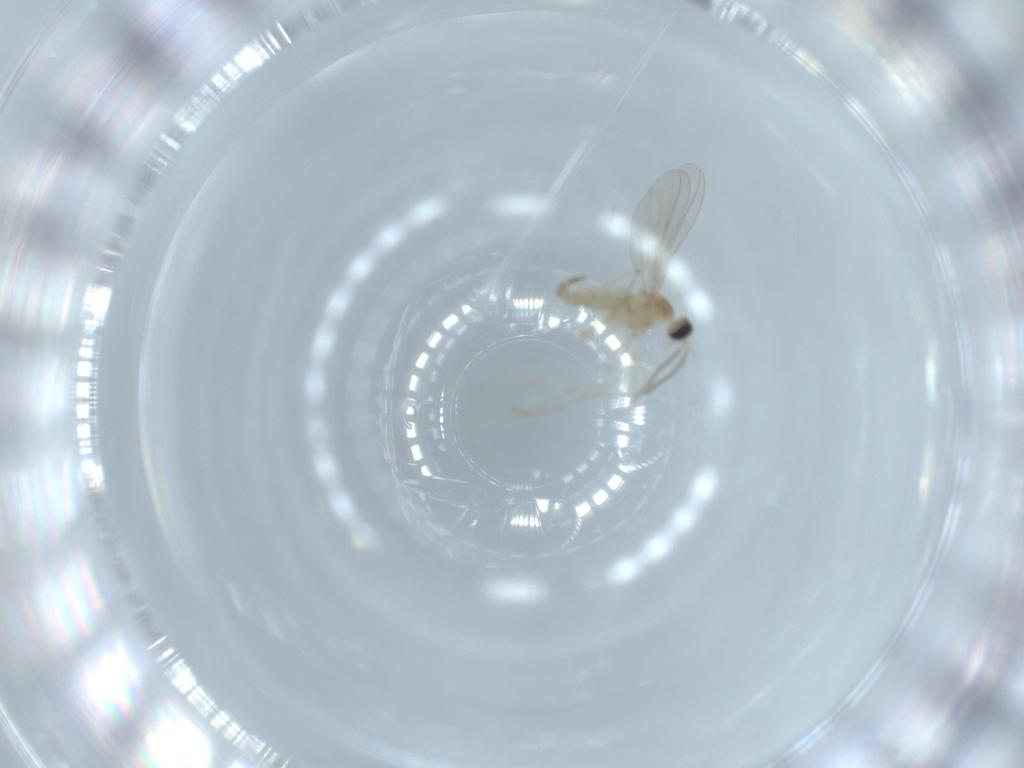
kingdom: Animalia
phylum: Arthropoda
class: Insecta
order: Diptera
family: Cecidomyiidae
